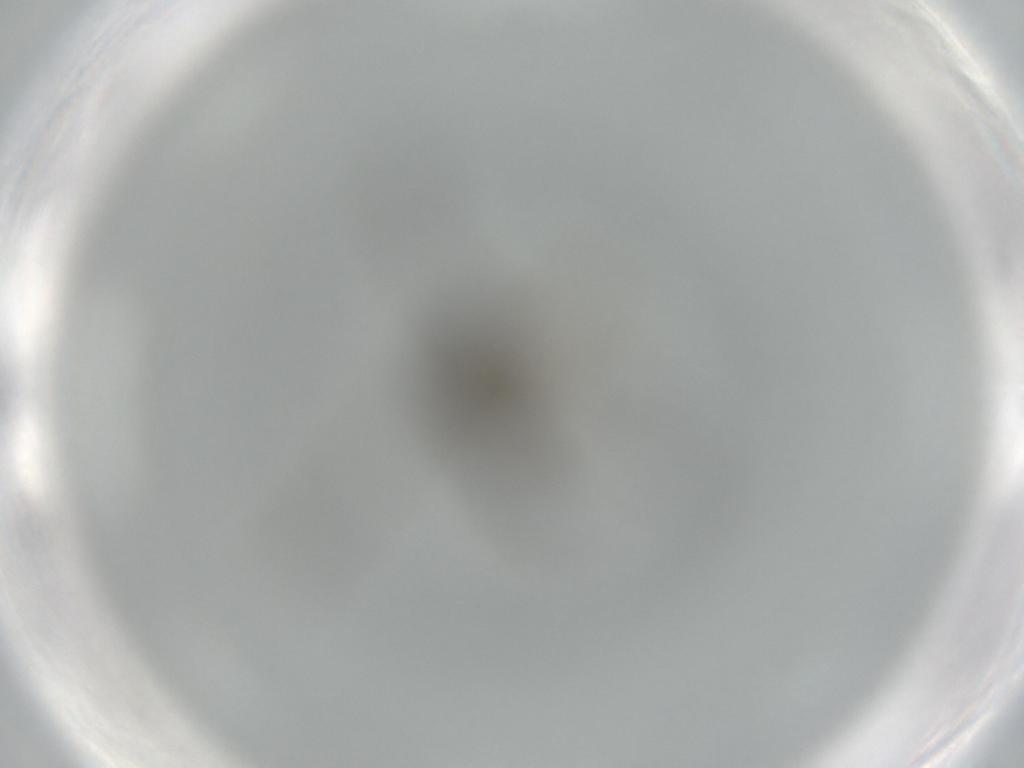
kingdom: Animalia
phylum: Arthropoda
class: Insecta
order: Diptera
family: Sciaridae
